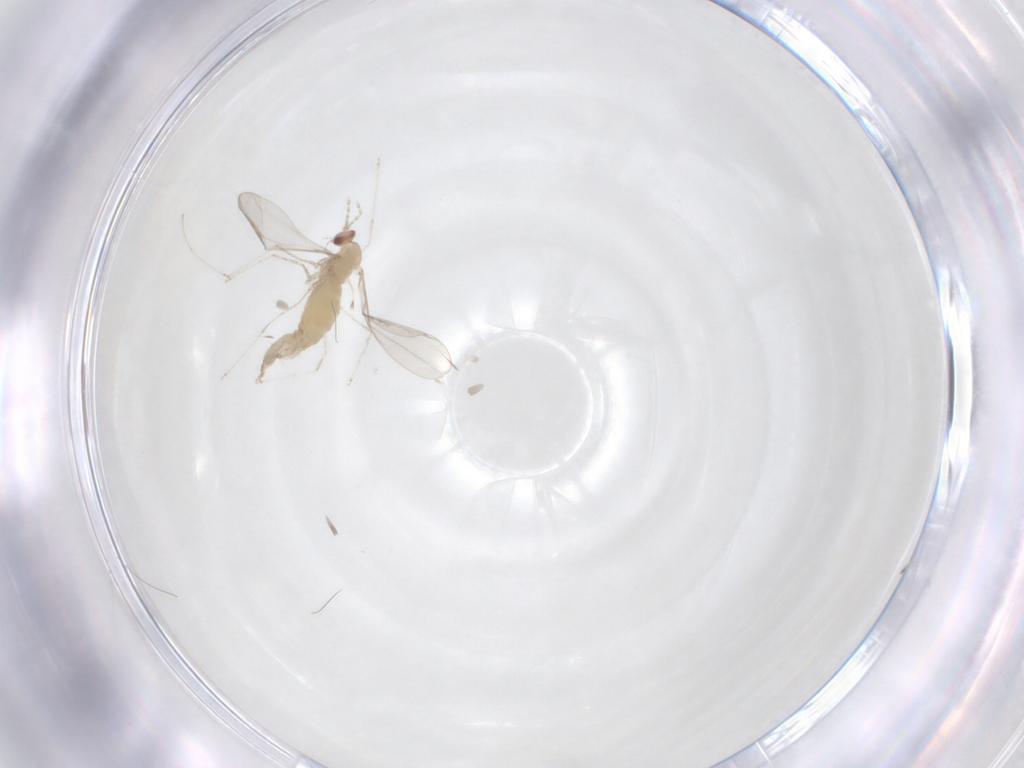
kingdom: Animalia
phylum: Arthropoda
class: Insecta
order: Diptera
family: Cecidomyiidae
